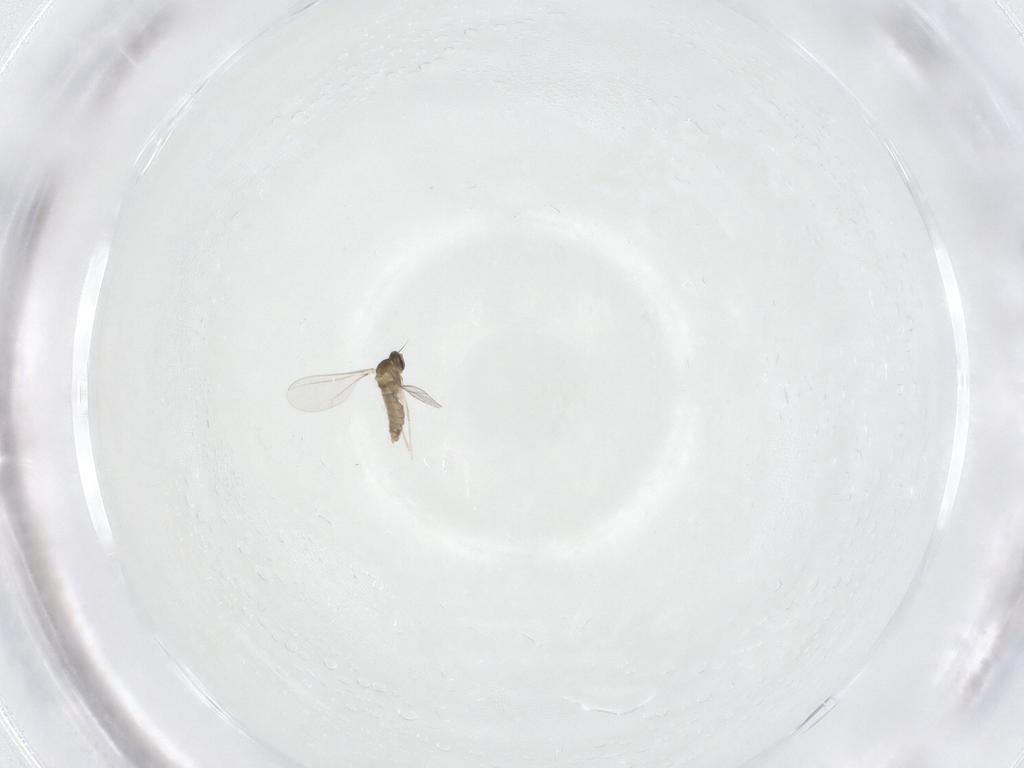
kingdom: Animalia
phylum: Arthropoda
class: Insecta
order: Diptera
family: Cecidomyiidae
